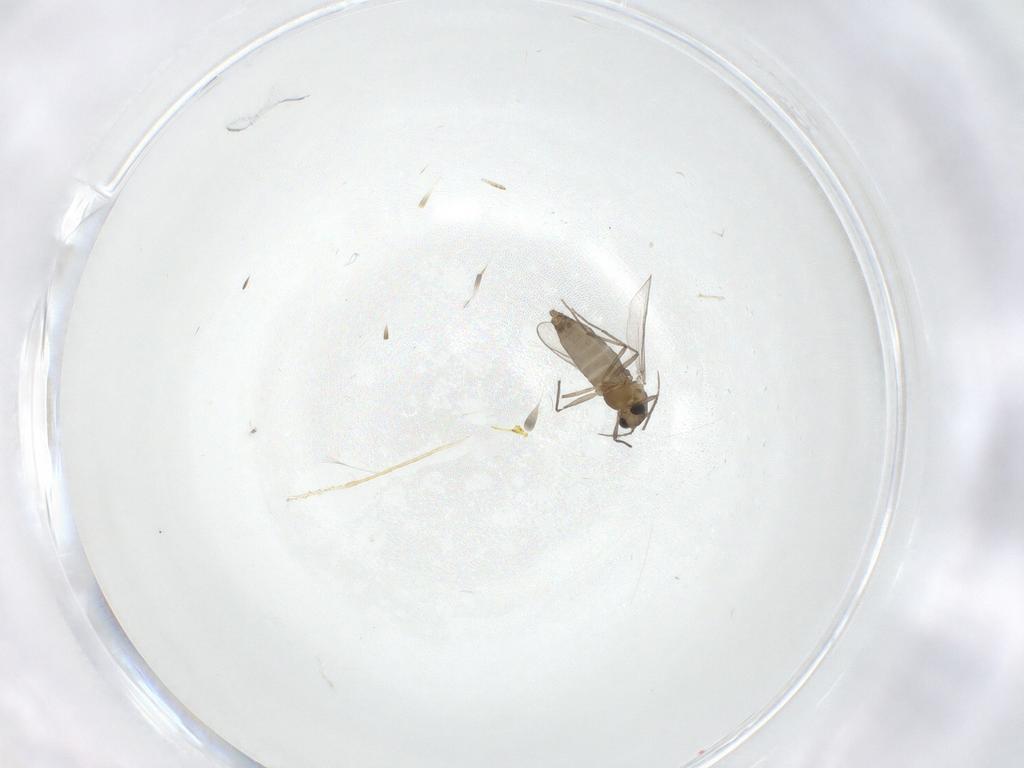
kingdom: Animalia
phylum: Arthropoda
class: Insecta
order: Diptera
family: Chironomidae
